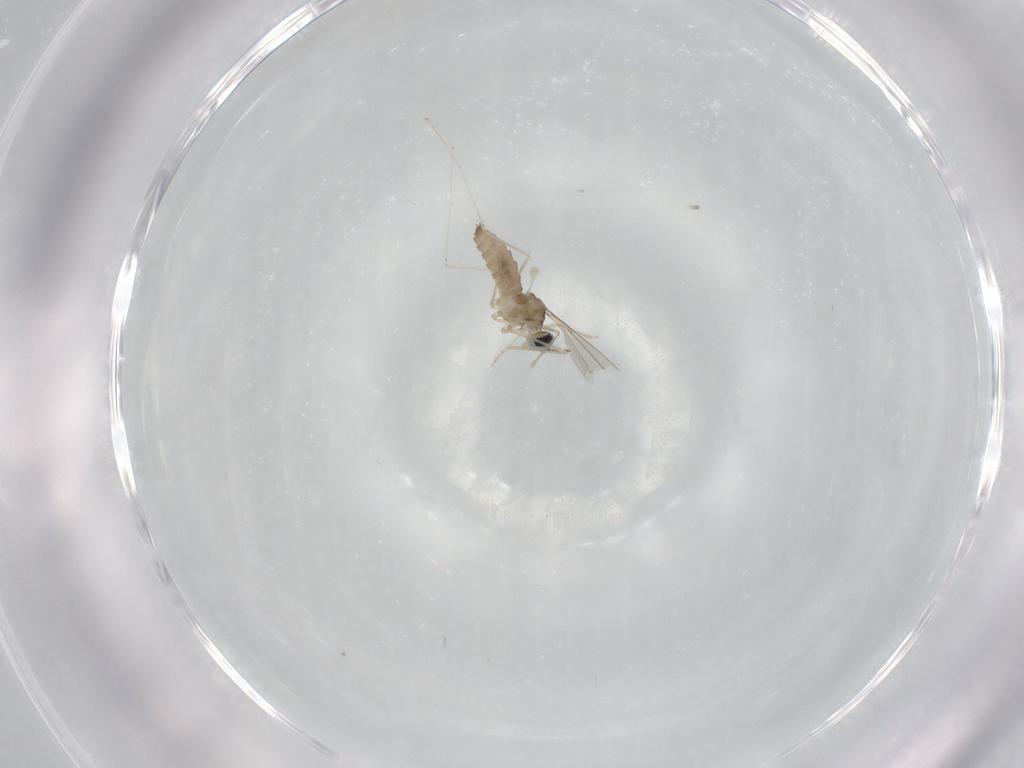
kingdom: Animalia
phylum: Arthropoda
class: Insecta
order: Diptera
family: Cecidomyiidae
